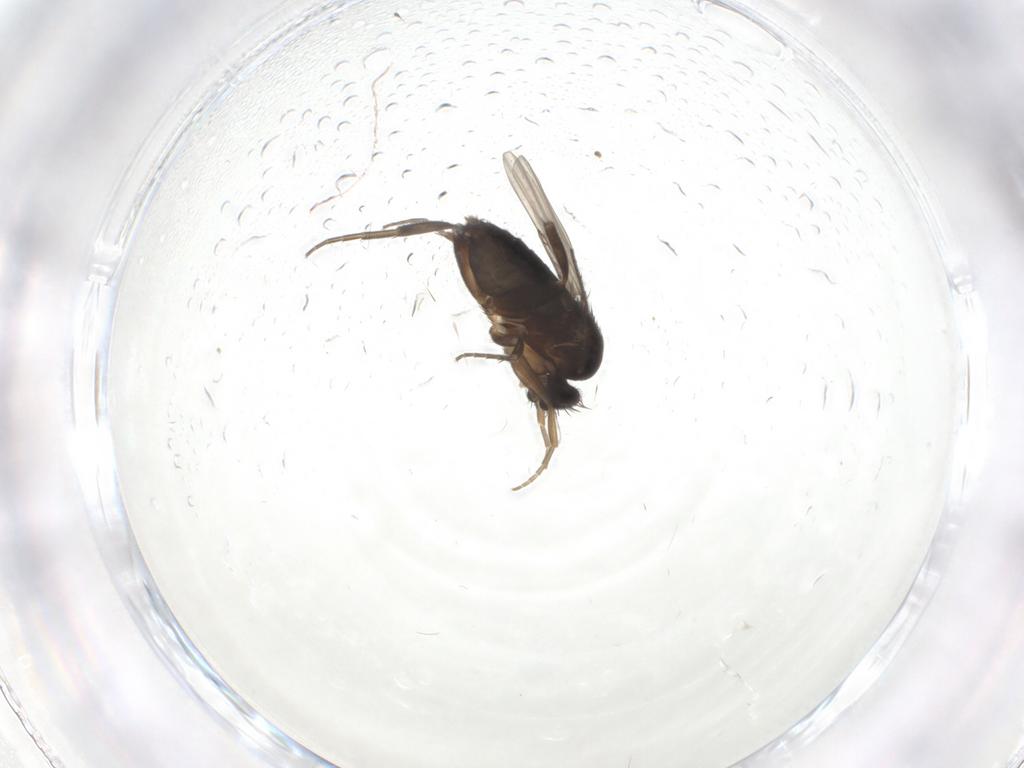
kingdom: Animalia
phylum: Arthropoda
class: Insecta
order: Diptera
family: Phoridae
